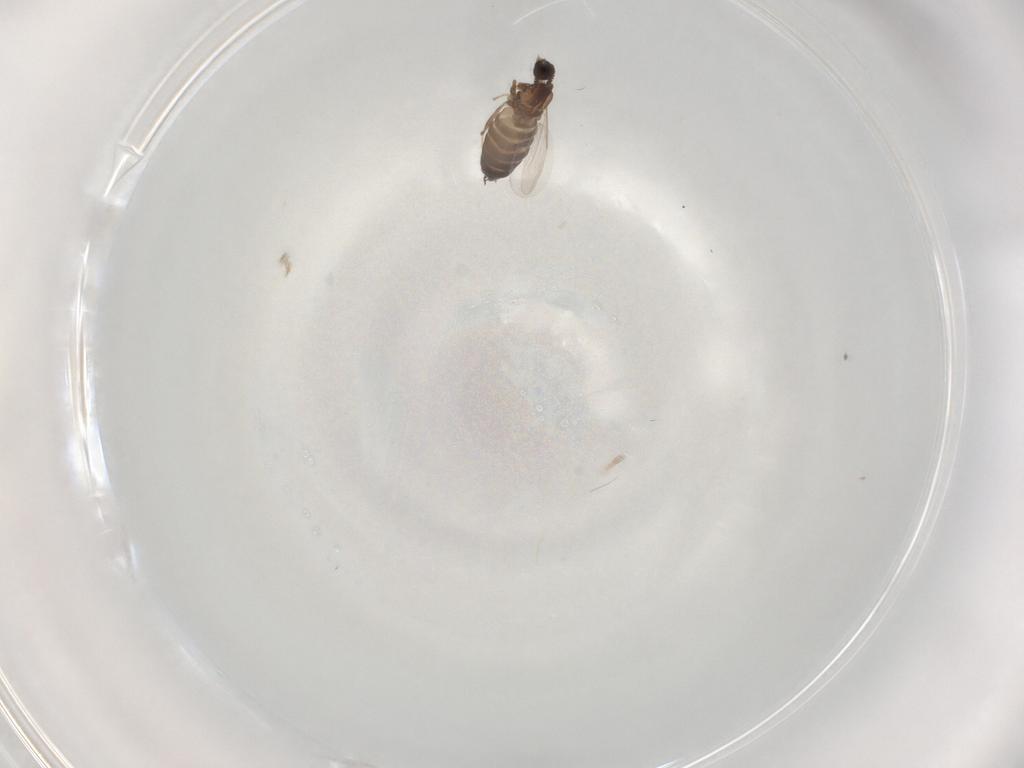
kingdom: Animalia
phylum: Arthropoda
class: Insecta
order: Diptera
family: Scatopsidae
